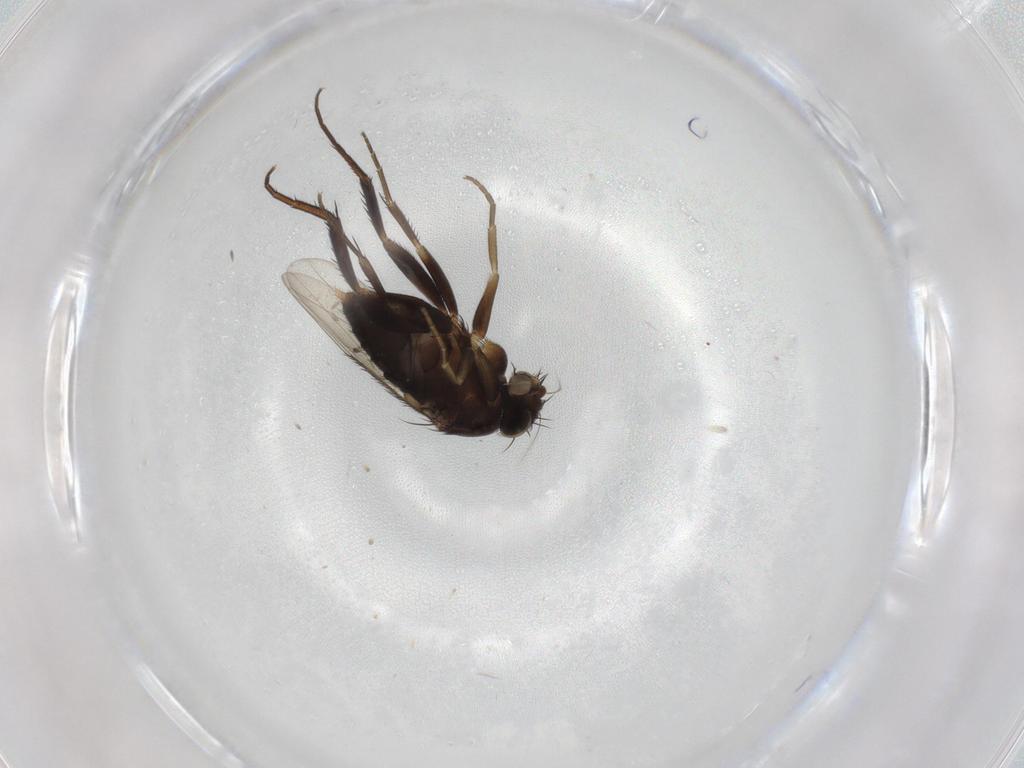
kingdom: Animalia
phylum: Arthropoda
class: Insecta
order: Diptera
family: Phoridae
